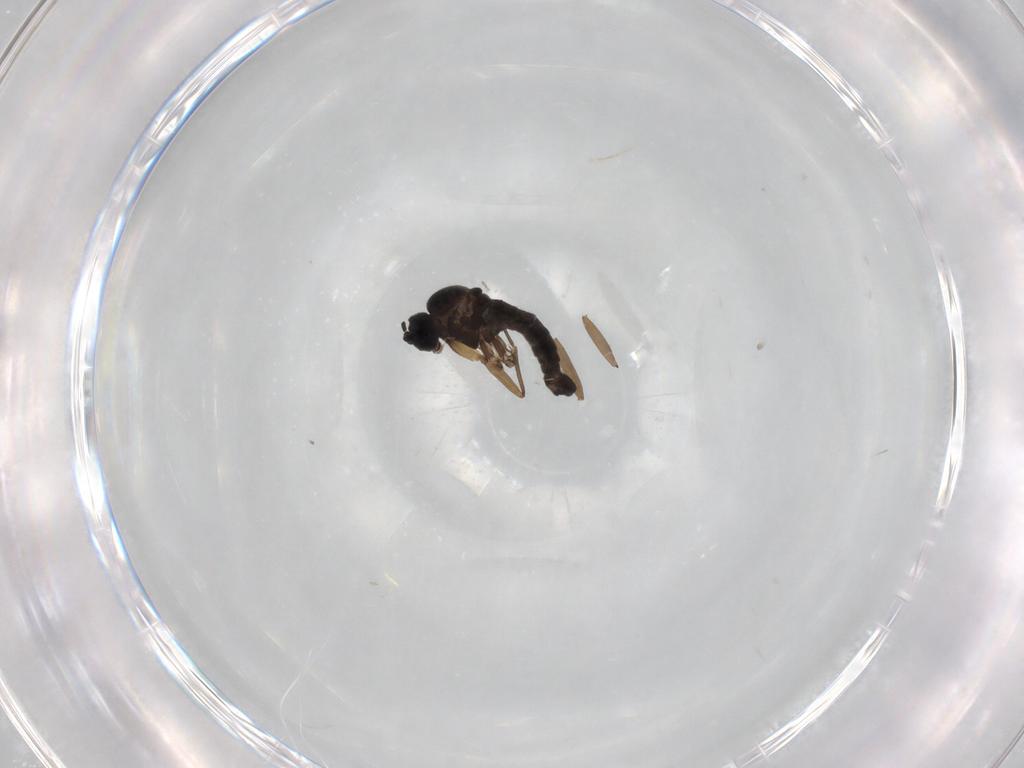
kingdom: Animalia
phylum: Arthropoda
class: Insecta
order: Diptera
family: Sciaridae
